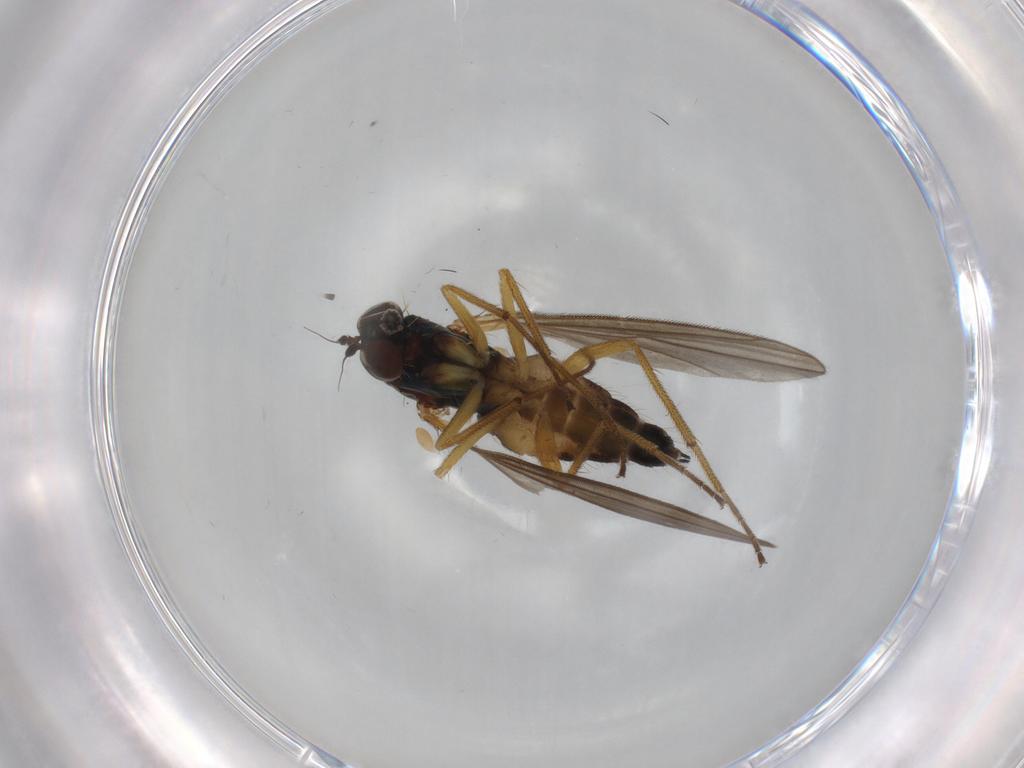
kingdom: Animalia
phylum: Arthropoda
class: Insecta
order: Diptera
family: Dolichopodidae
